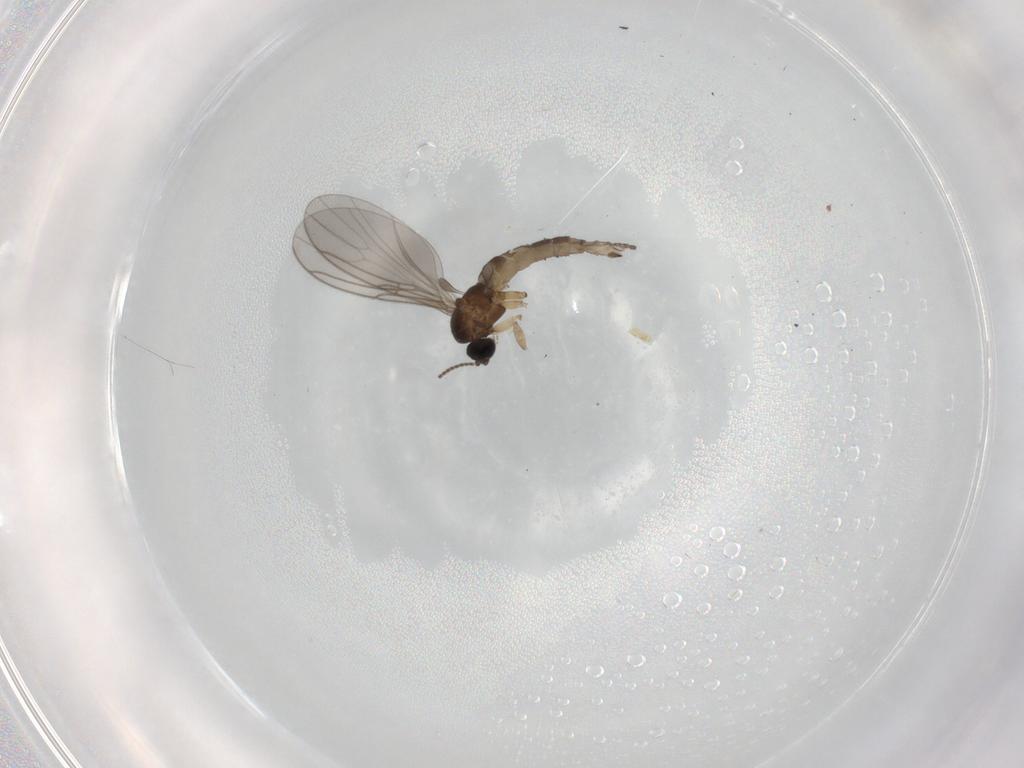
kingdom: Animalia
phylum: Arthropoda
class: Insecta
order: Diptera
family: Sciaridae
